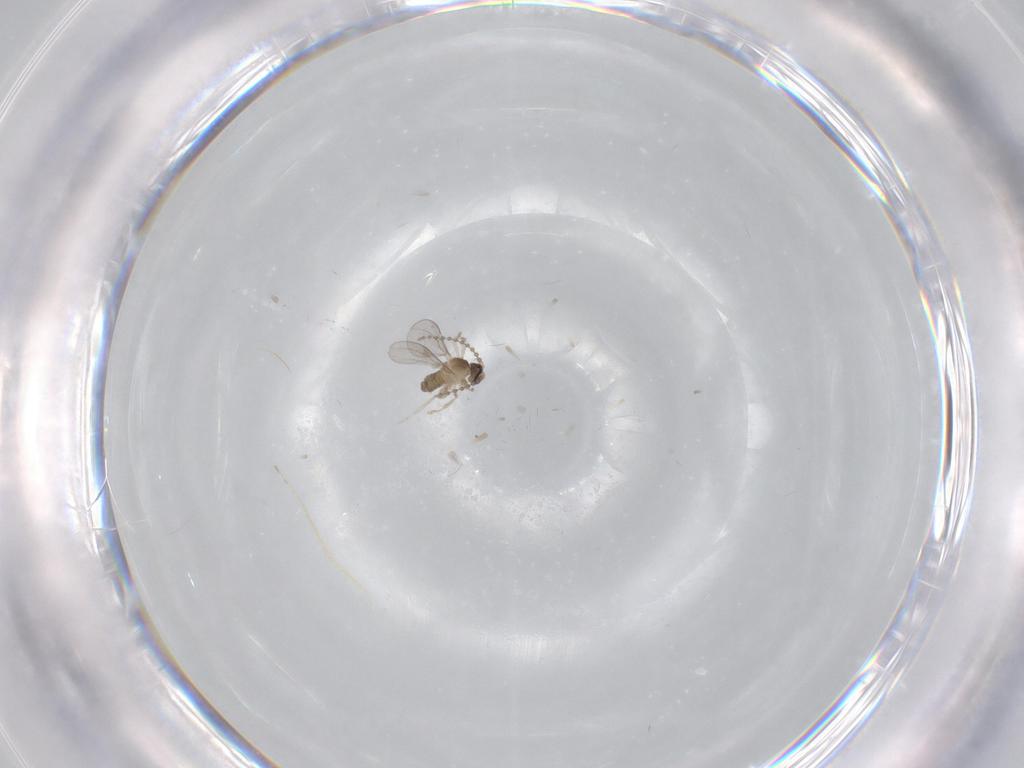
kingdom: Animalia
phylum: Arthropoda
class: Insecta
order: Diptera
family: Cecidomyiidae
